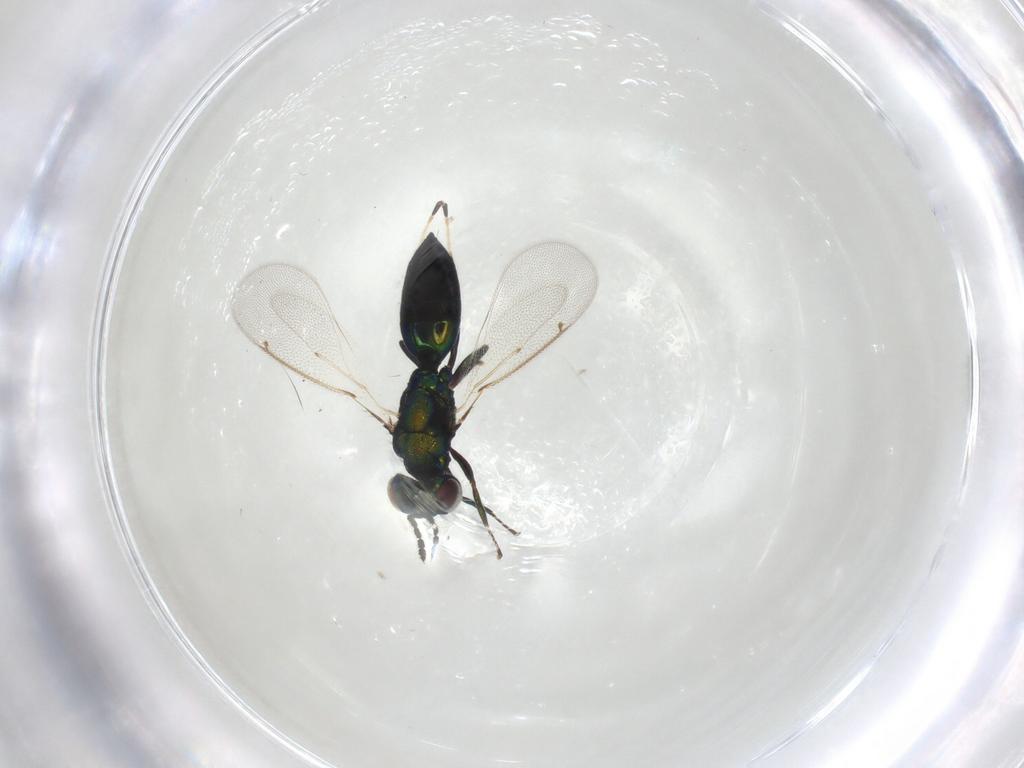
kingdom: Animalia
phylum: Arthropoda
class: Insecta
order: Hymenoptera
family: Eulophidae
